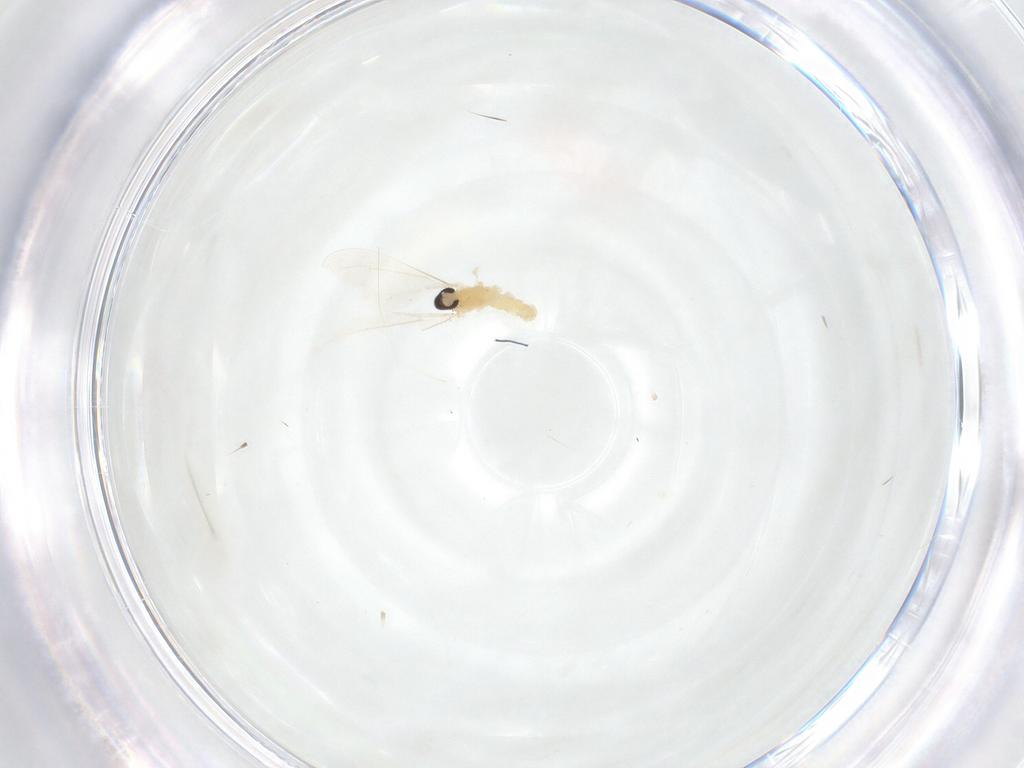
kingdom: Animalia
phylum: Arthropoda
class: Insecta
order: Diptera
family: Cecidomyiidae
